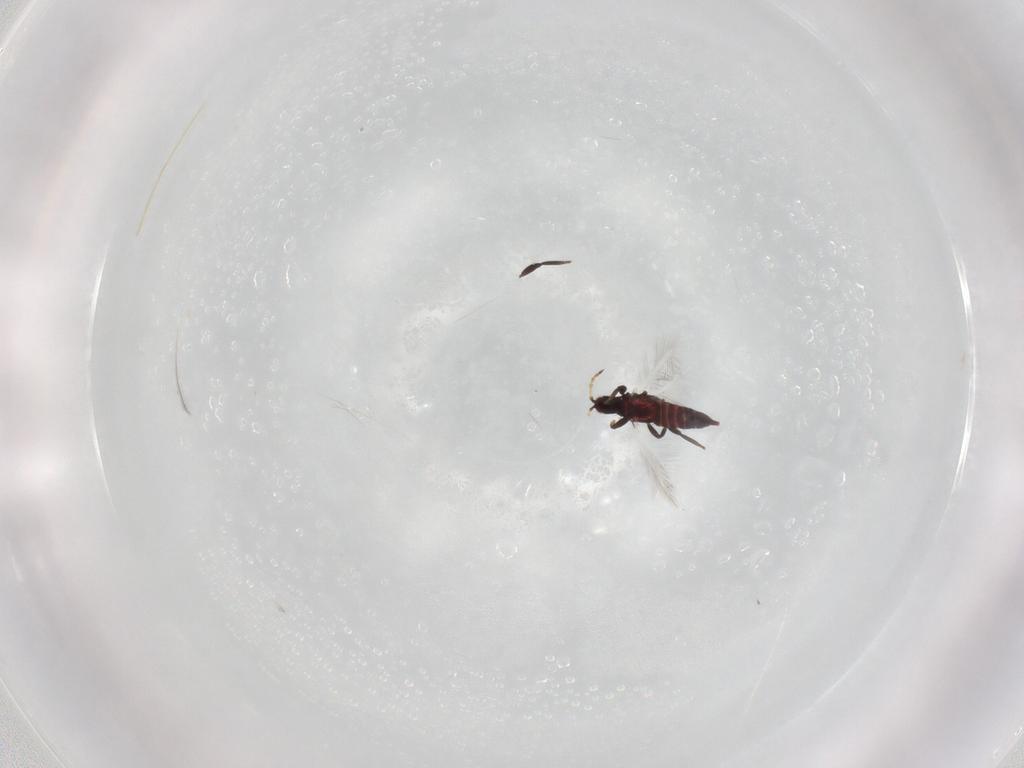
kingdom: Animalia
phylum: Arthropoda
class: Insecta
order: Thysanoptera
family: Phlaeothripidae
